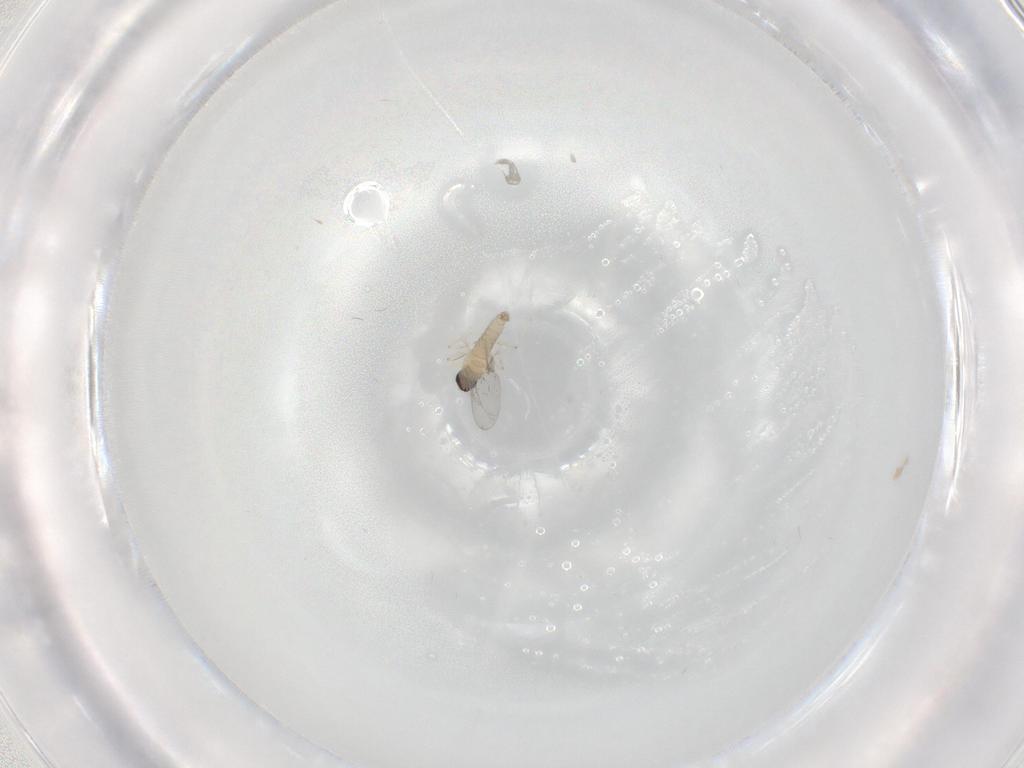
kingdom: Animalia
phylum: Arthropoda
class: Insecta
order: Diptera
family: Cecidomyiidae
